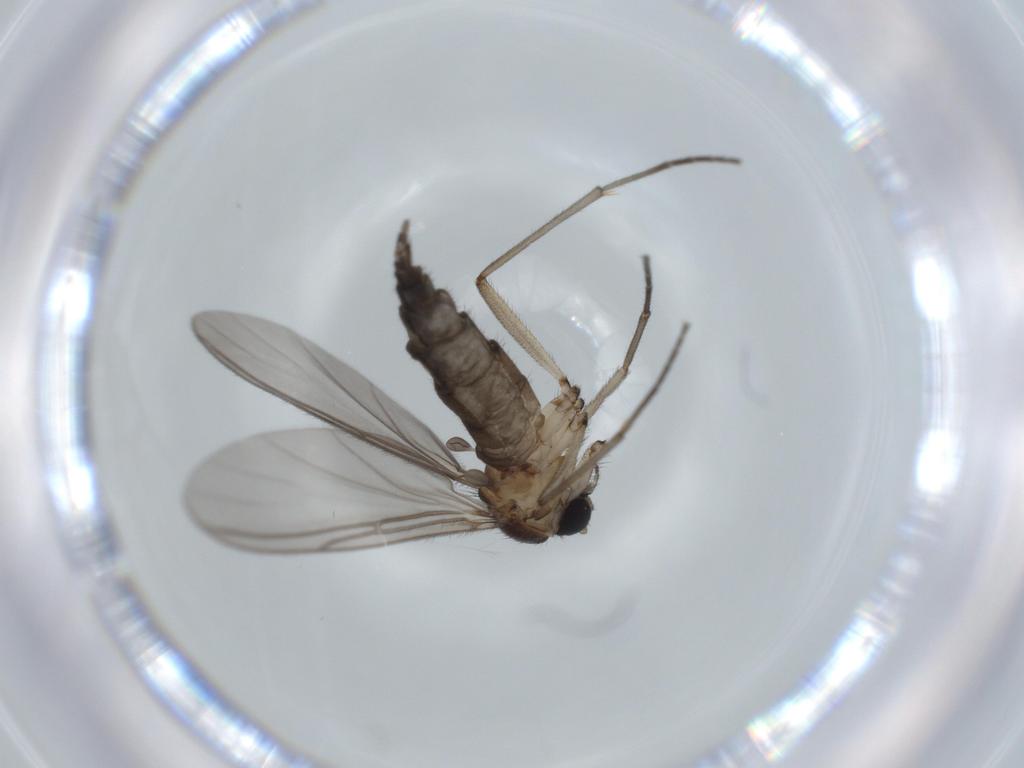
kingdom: Animalia
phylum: Arthropoda
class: Insecta
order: Diptera
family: Sciaridae
